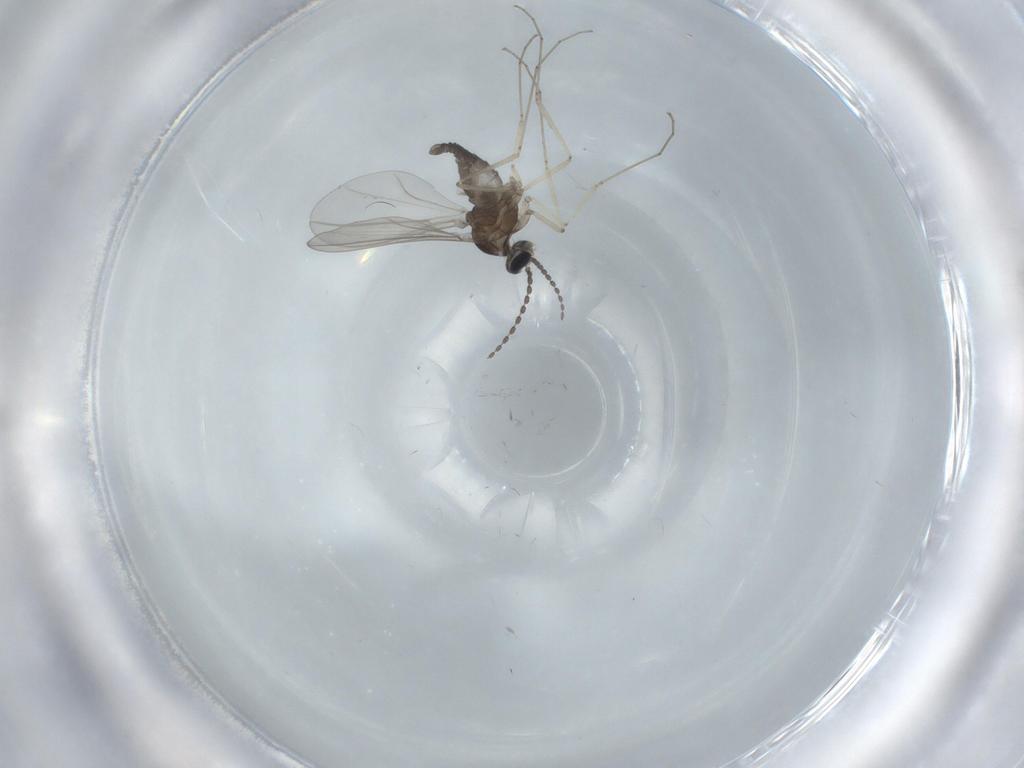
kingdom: Animalia
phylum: Arthropoda
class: Insecta
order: Diptera
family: Cecidomyiidae
